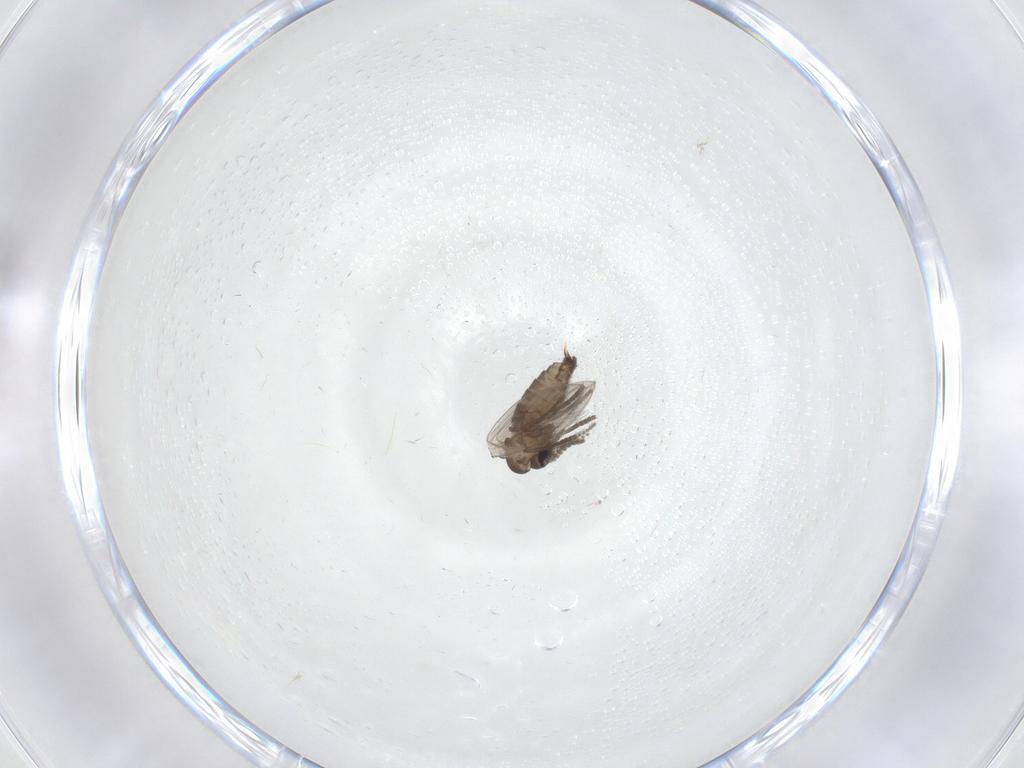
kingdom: Animalia
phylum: Arthropoda
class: Insecta
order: Diptera
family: Psychodidae
